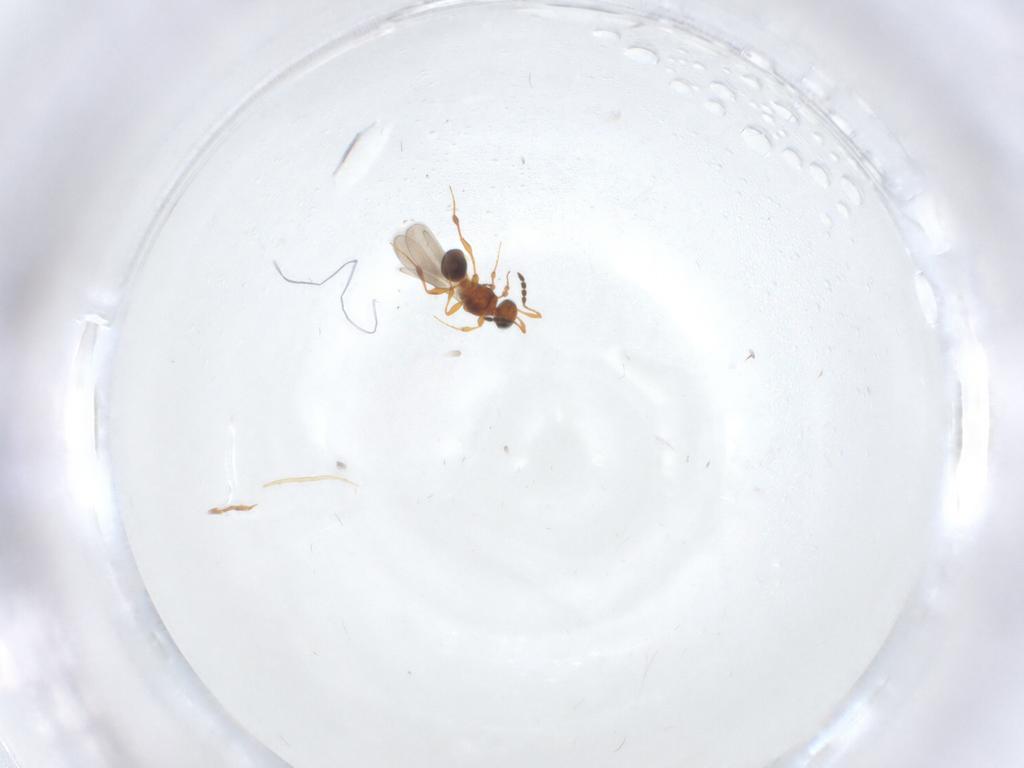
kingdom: Animalia
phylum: Arthropoda
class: Insecta
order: Hymenoptera
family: Platygastridae
